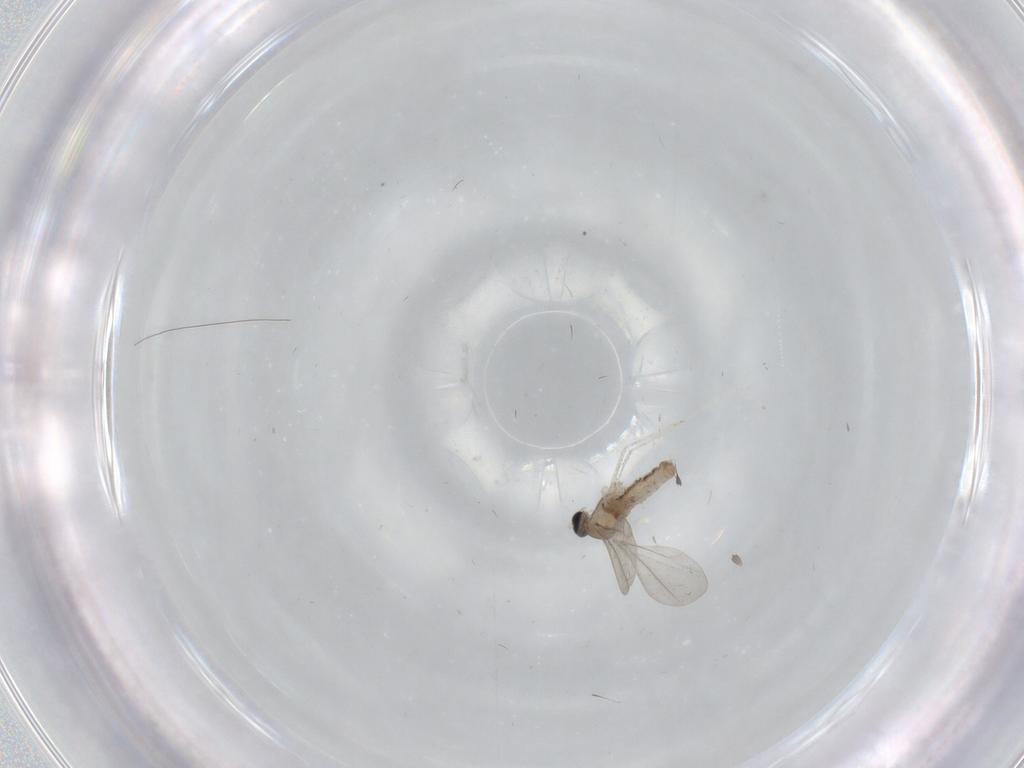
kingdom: Animalia
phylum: Arthropoda
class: Insecta
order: Diptera
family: Cecidomyiidae
